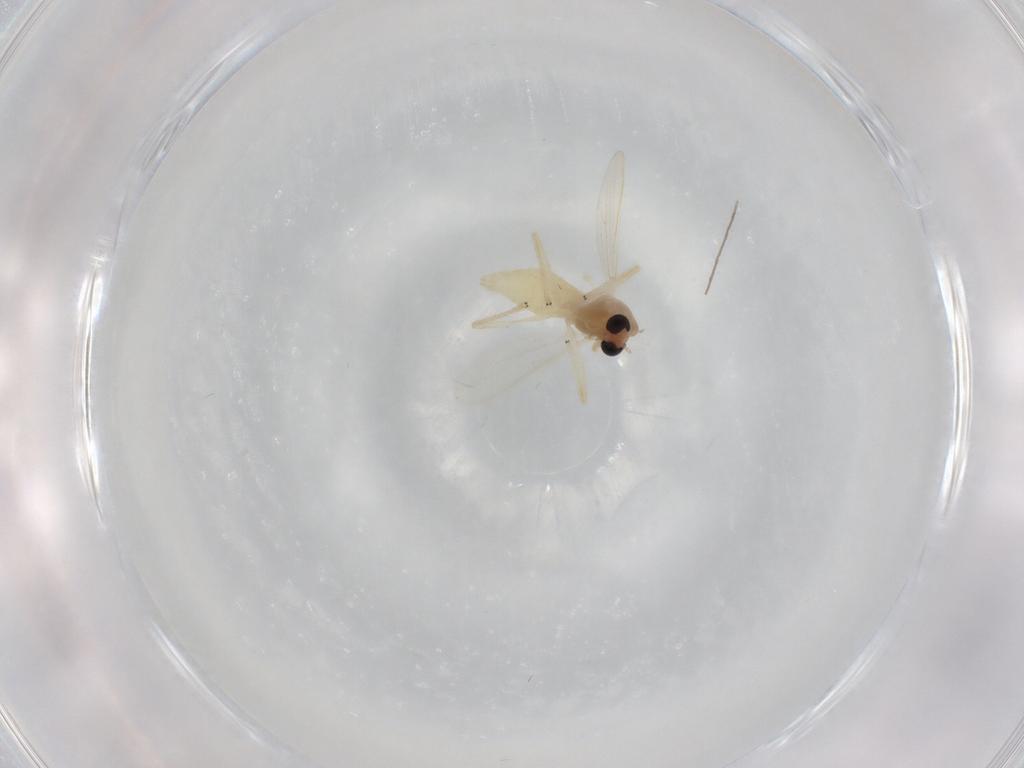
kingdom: Animalia
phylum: Arthropoda
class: Insecta
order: Diptera
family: Chironomidae
